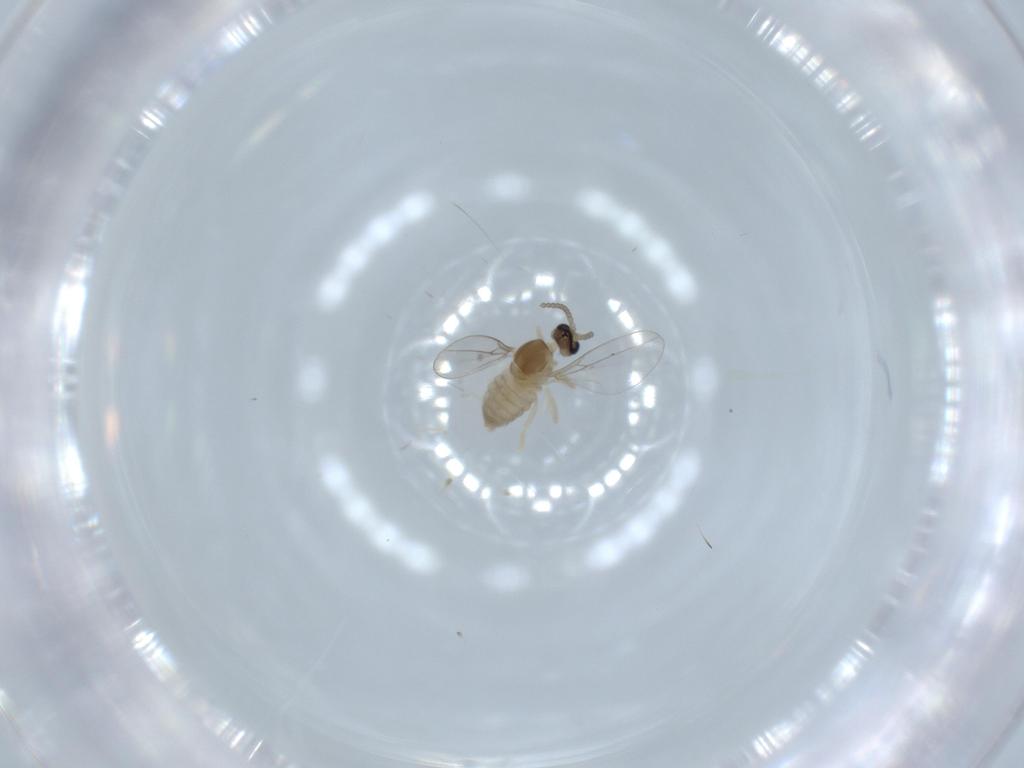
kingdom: Animalia
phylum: Arthropoda
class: Insecta
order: Diptera
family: Cecidomyiidae
